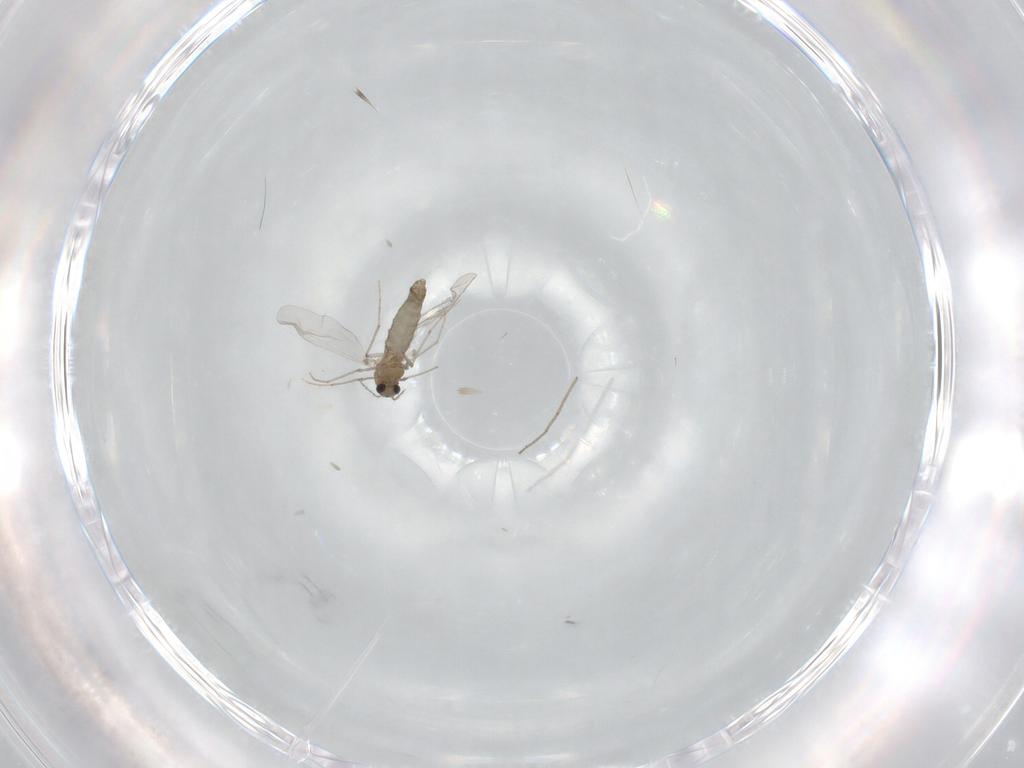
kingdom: Animalia
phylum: Arthropoda
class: Insecta
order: Diptera
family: Chironomidae
